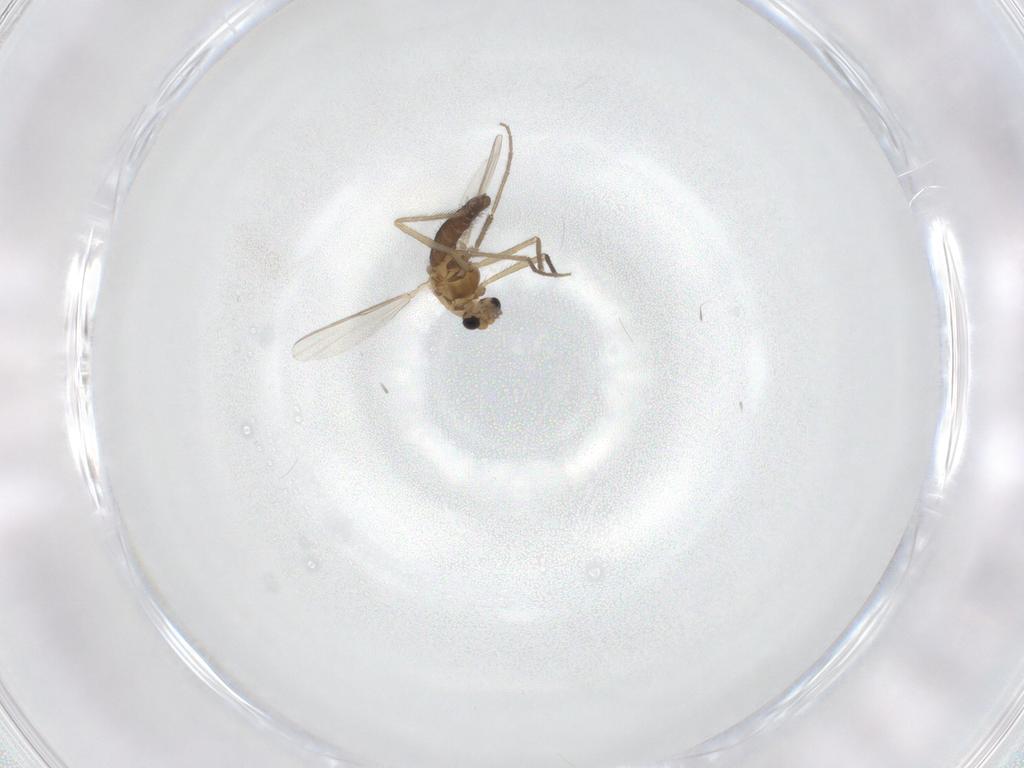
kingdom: Animalia
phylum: Arthropoda
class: Insecta
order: Diptera
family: Chironomidae
